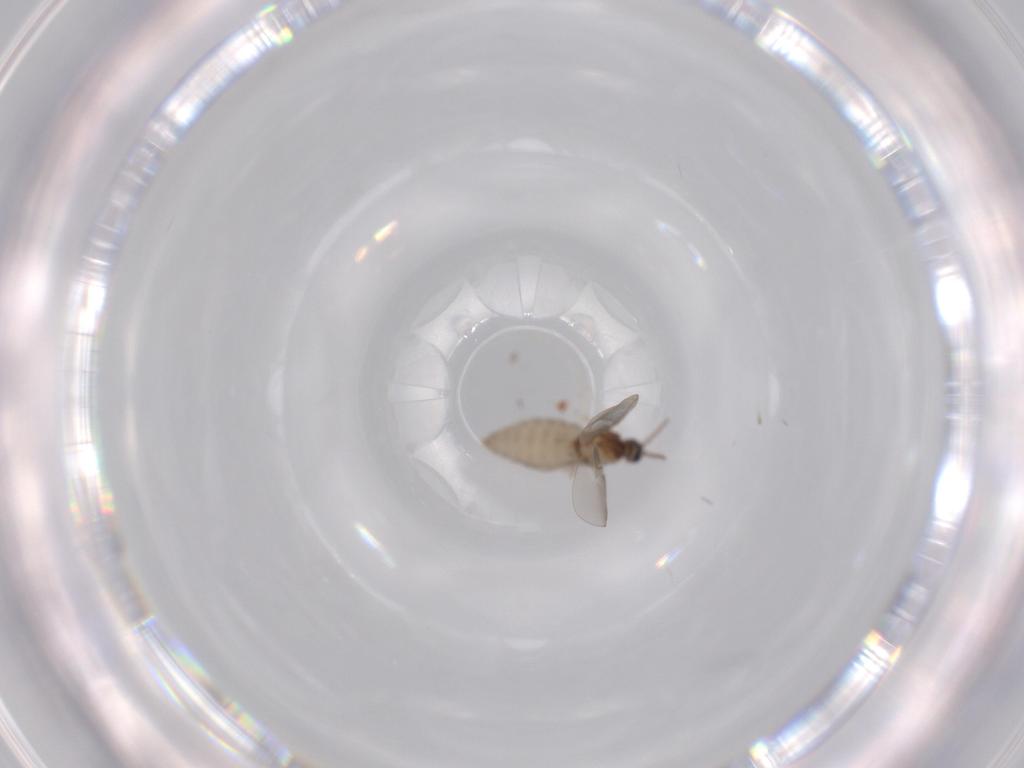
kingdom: Animalia
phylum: Arthropoda
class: Insecta
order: Diptera
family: Cecidomyiidae
